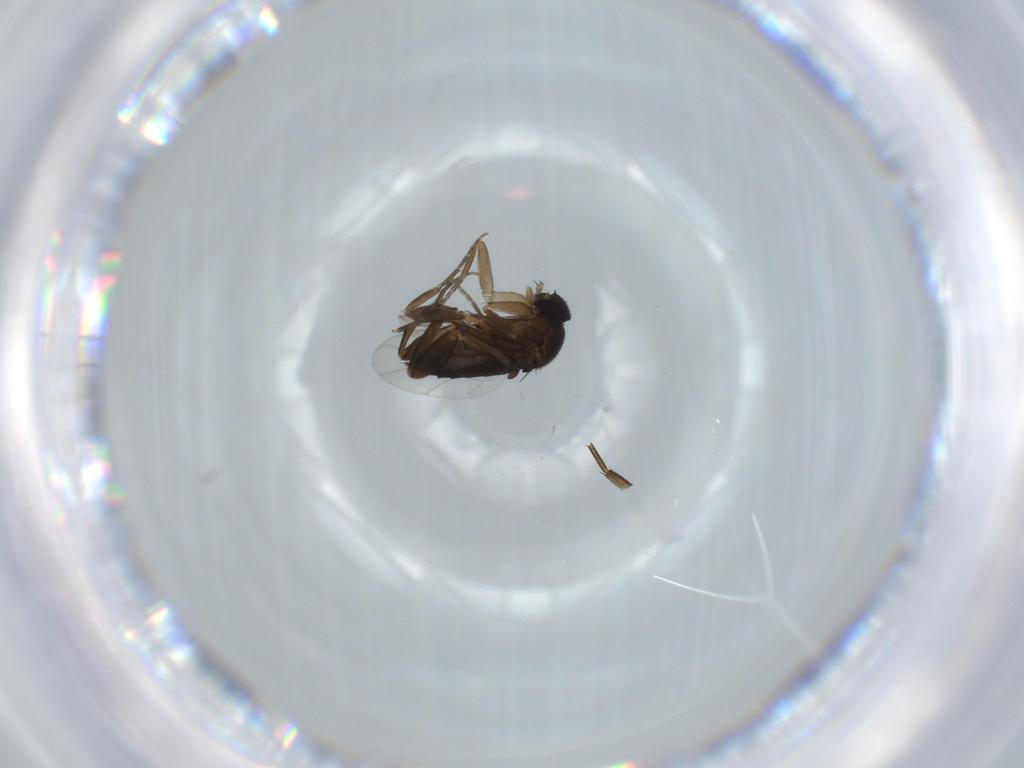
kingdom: Animalia
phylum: Arthropoda
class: Insecta
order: Diptera
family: Phoridae
